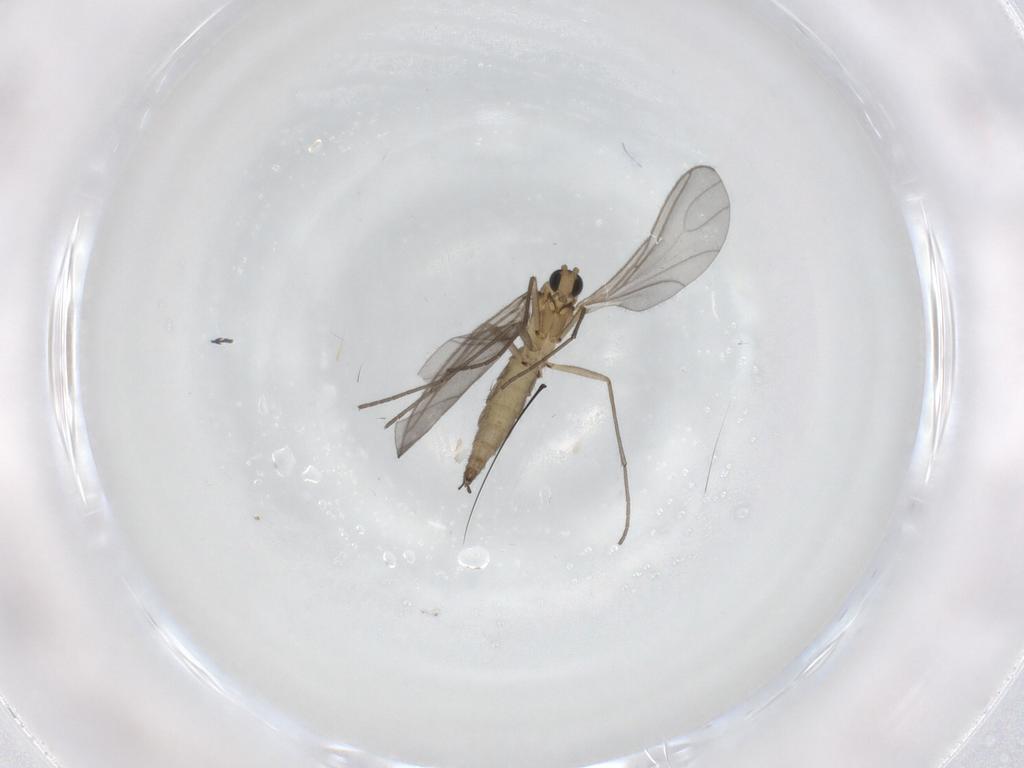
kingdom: Animalia
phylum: Arthropoda
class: Insecta
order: Diptera
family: Sciaridae
